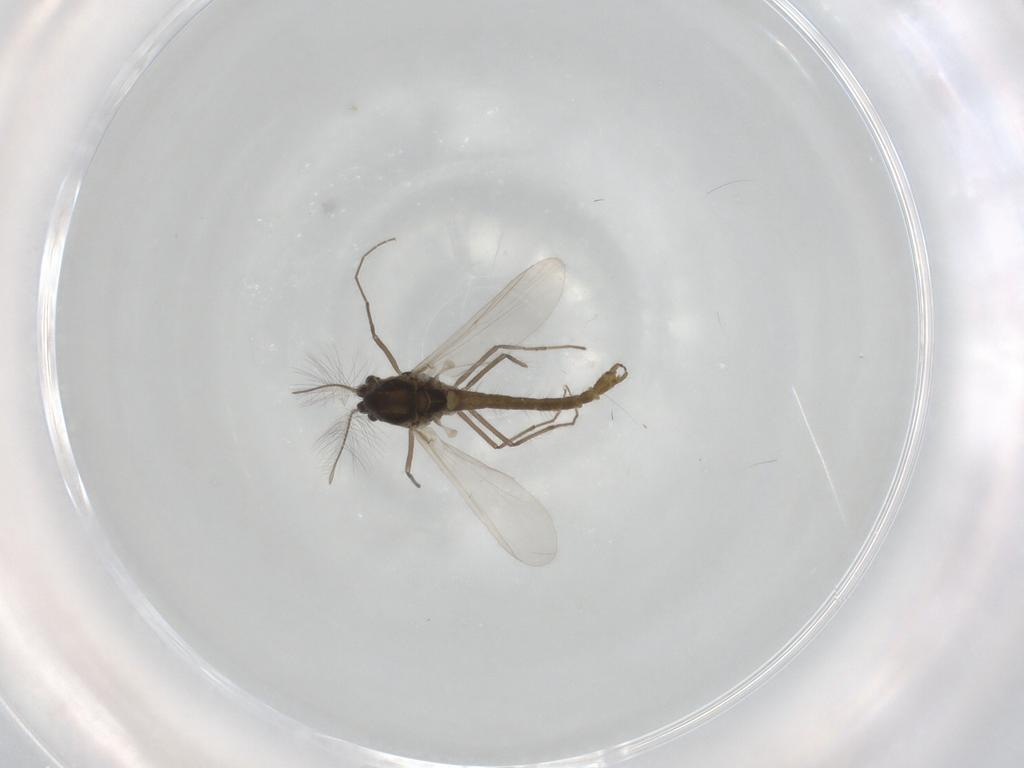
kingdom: Animalia
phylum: Arthropoda
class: Insecta
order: Diptera
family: Chironomidae
